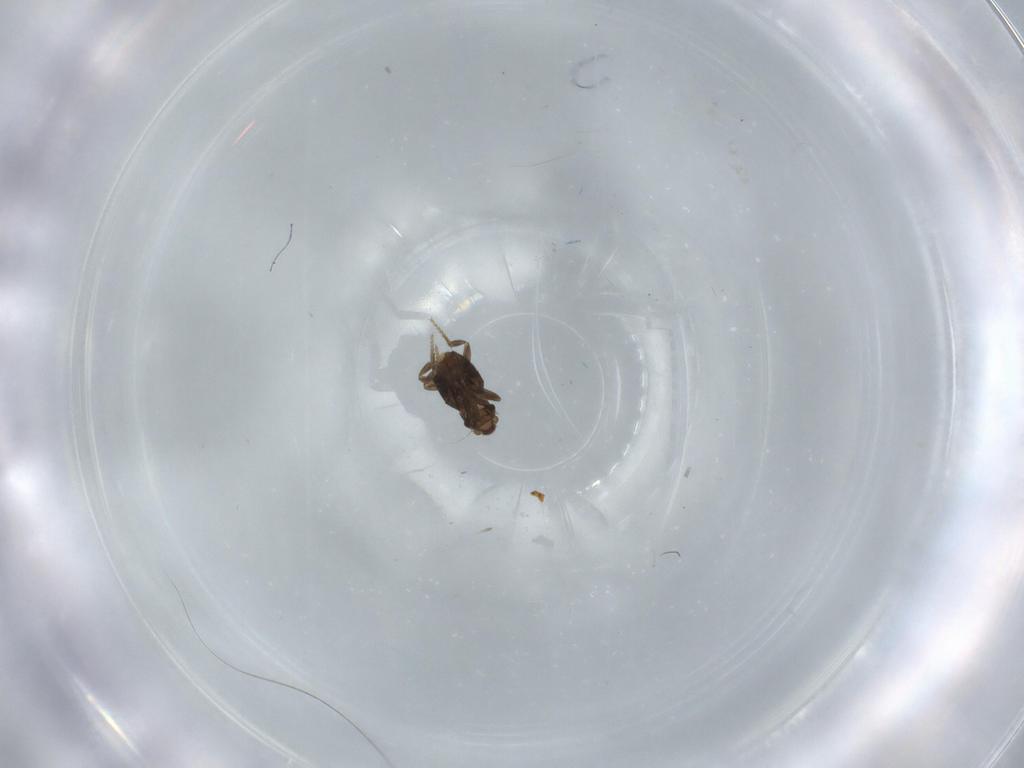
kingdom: Animalia
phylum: Arthropoda
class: Insecta
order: Diptera
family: Phoridae
